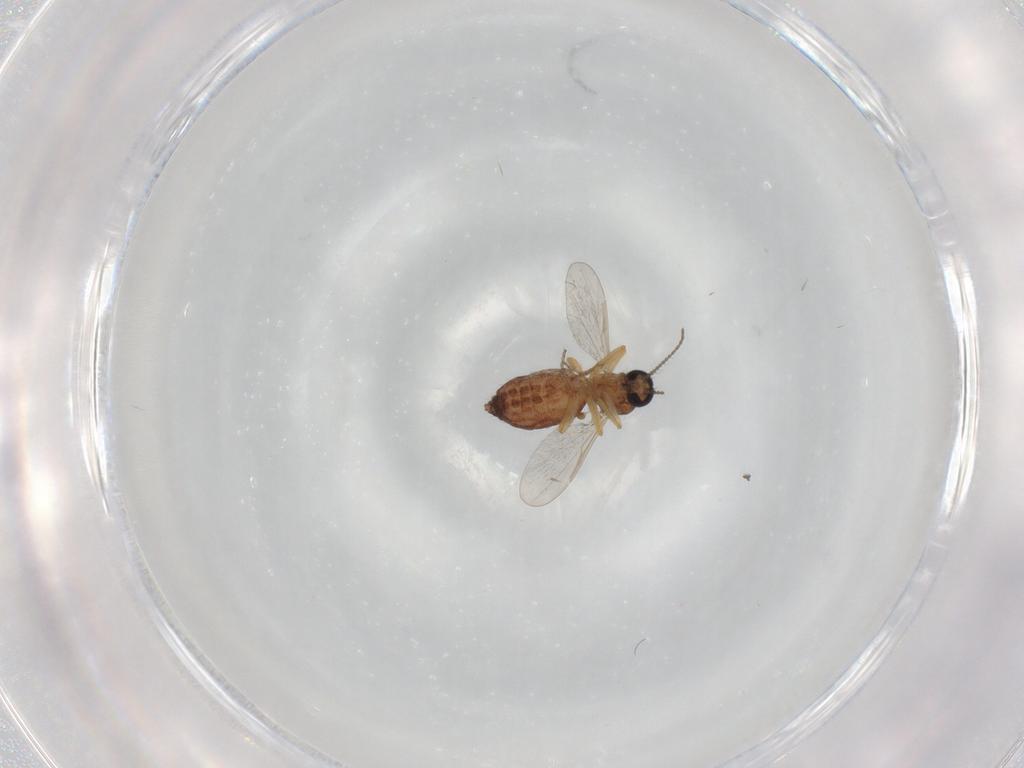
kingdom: Animalia
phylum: Arthropoda
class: Insecta
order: Diptera
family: Ceratopogonidae
